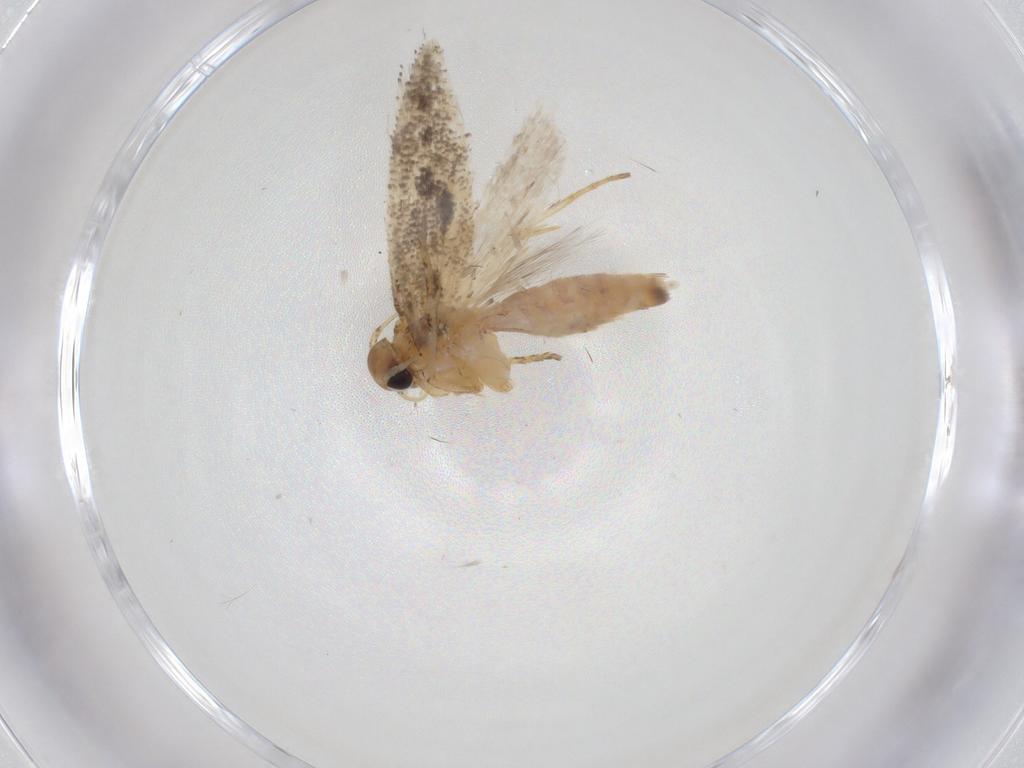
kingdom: Animalia
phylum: Arthropoda
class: Insecta
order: Lepidoptera
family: Gelechiidae
